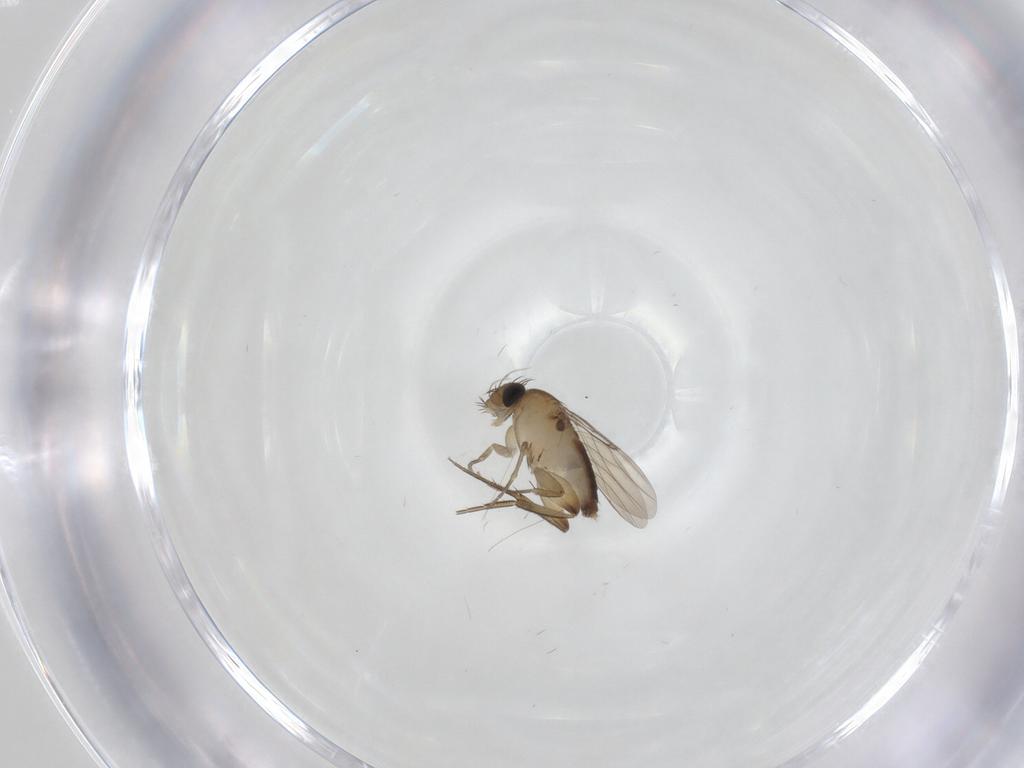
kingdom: Animalia
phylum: Arthropoda
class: Insecta
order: Diptera
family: Phoridae
